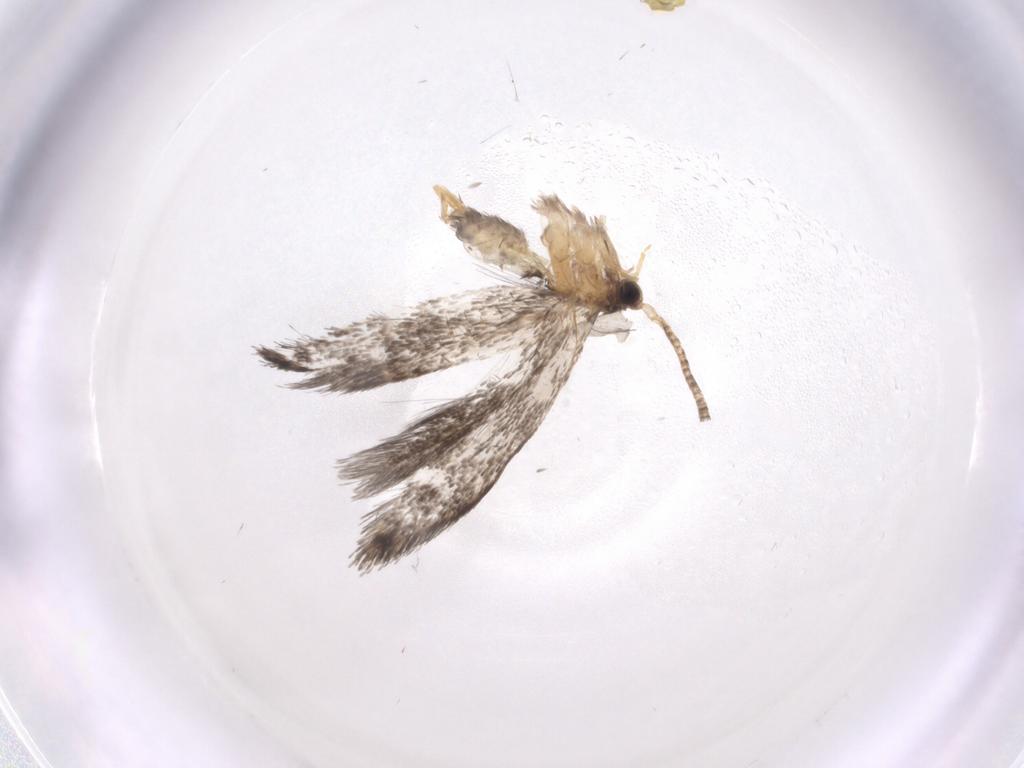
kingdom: Animalia
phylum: Arthropoda
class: Insecta
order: Lepidoptera
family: Tineidae
